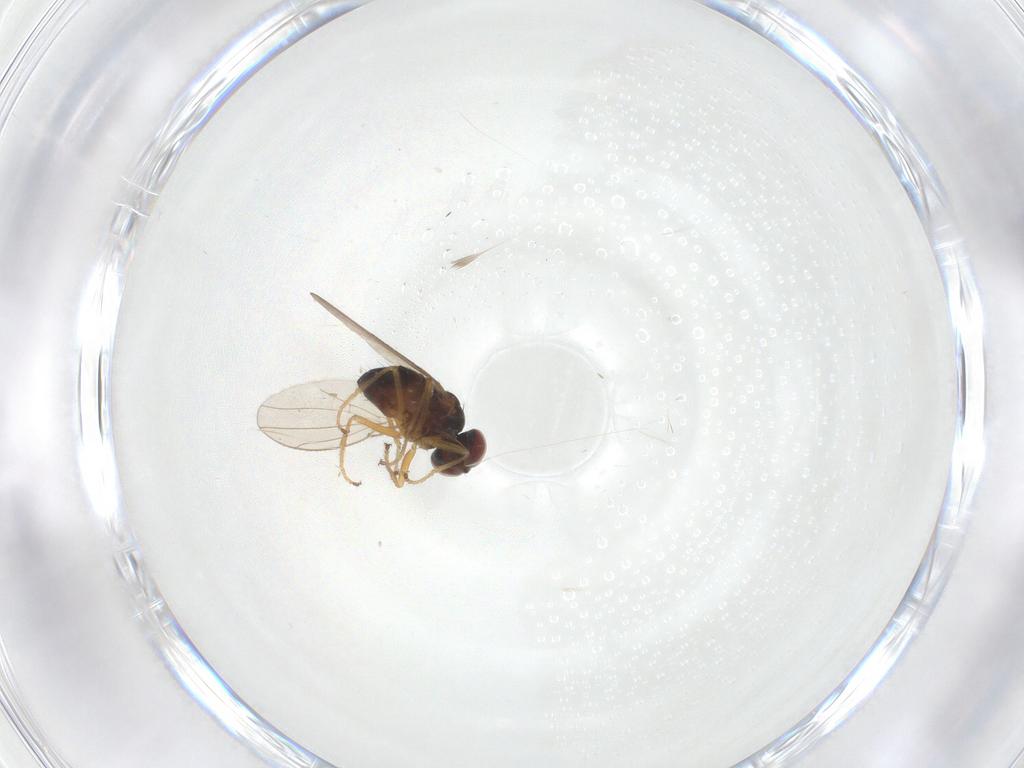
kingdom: Animalia
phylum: Arthropoda
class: Insecta
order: Diptera
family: Ephydridae
